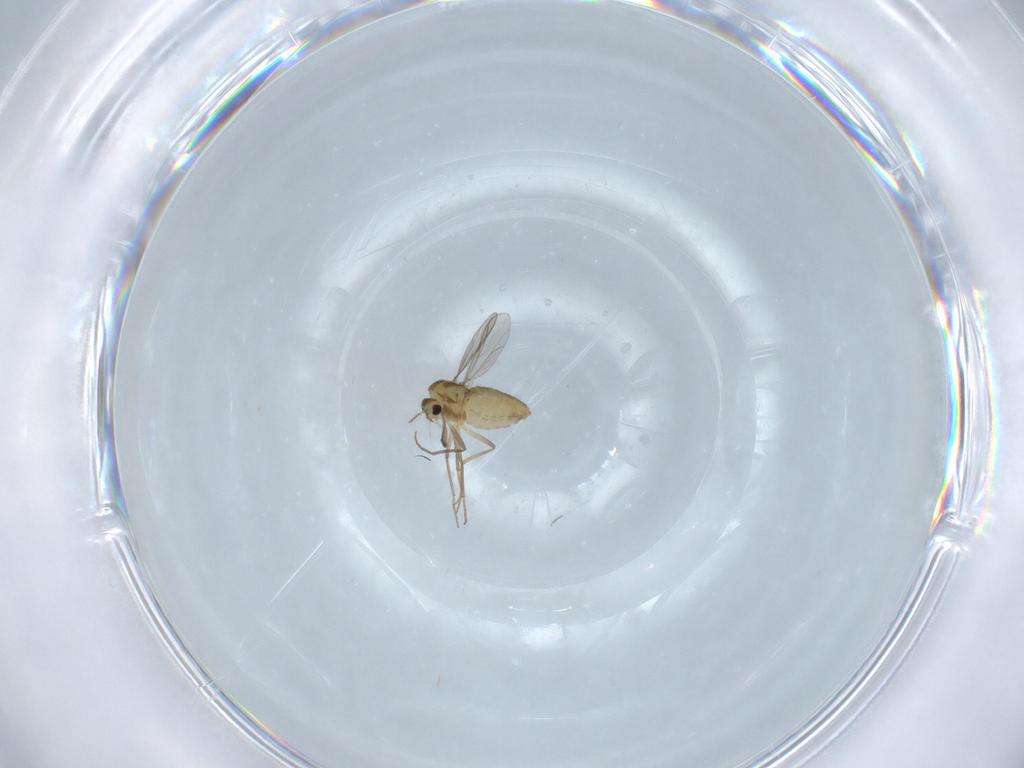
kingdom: Animalia
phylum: Arthropoda
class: Insecta
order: Diptera
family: Chironomidae
